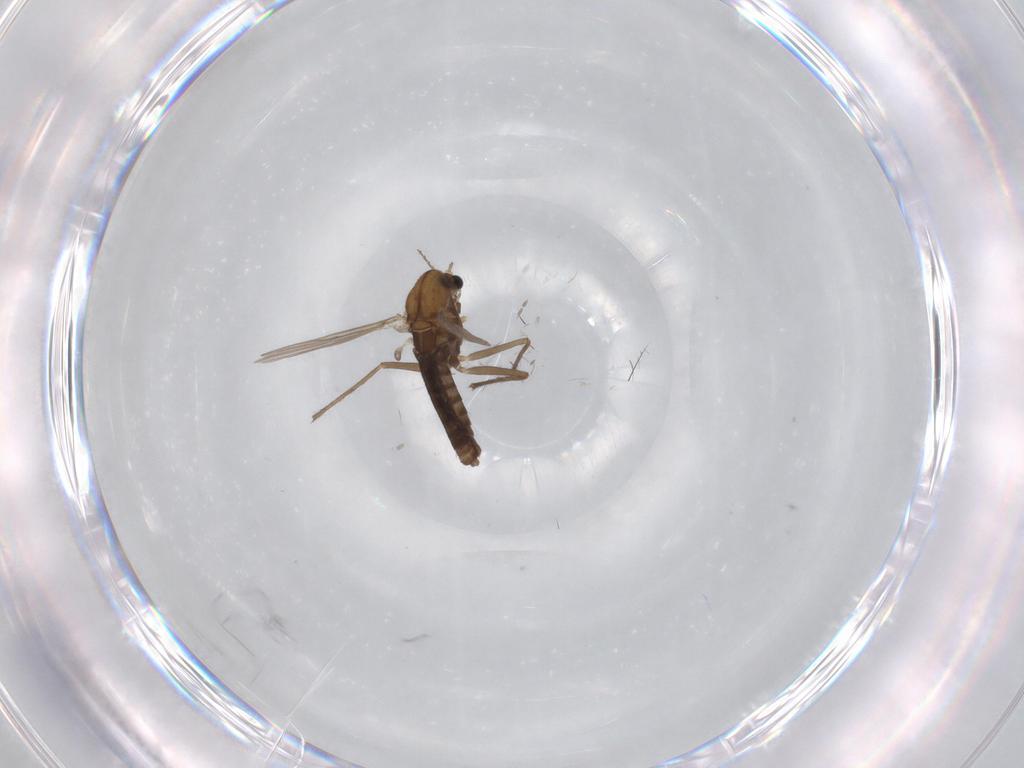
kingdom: Animalia
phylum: Arthropoda
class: Insecta
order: Diptera
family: Chironomidae
